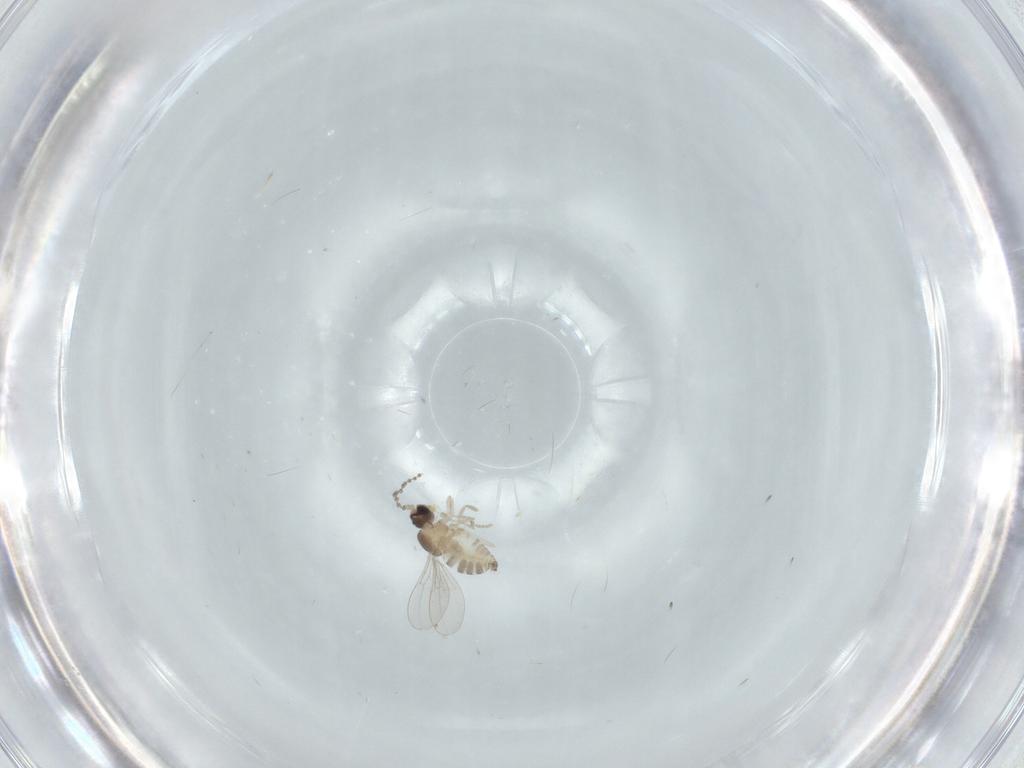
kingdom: Animalia
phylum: Arthropoda
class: Insecta
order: Diptera
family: Cecidomyiidae
